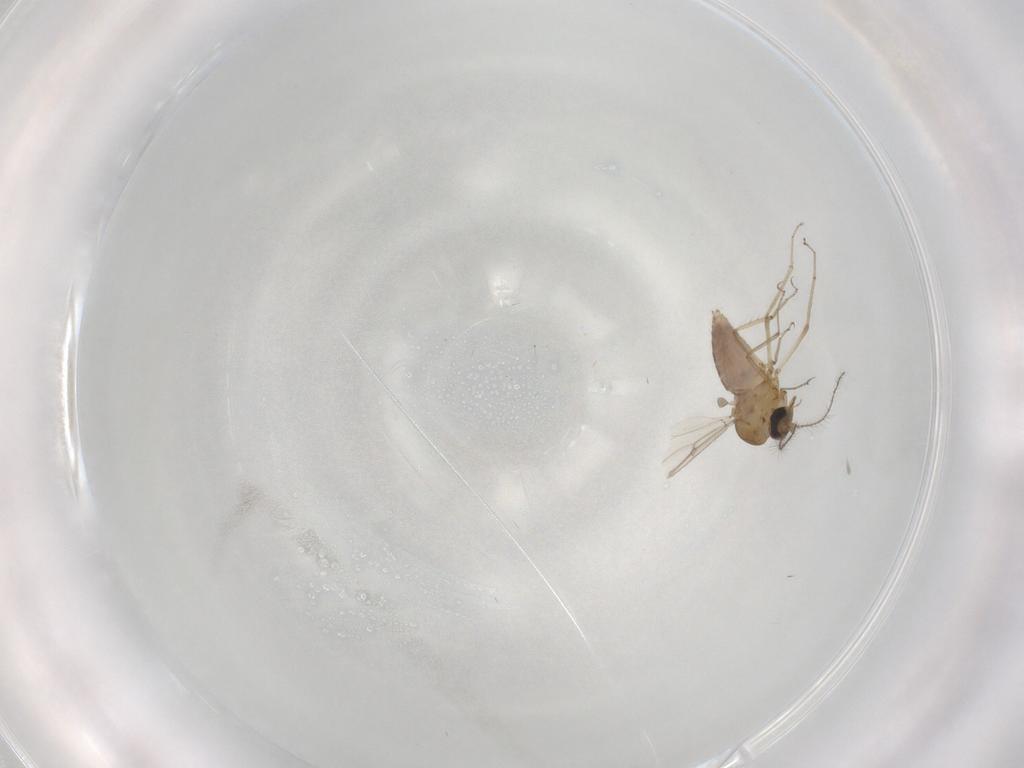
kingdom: Animalia
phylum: Arthropoda
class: Insecta
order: Diptera
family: Ceratopogonidae
